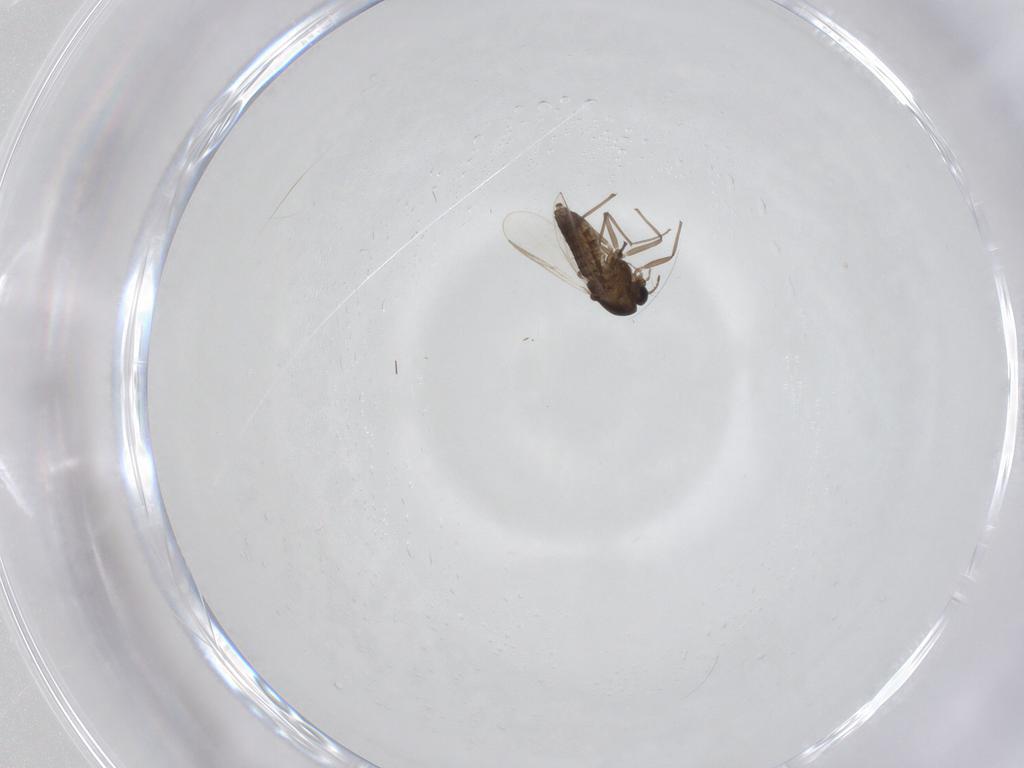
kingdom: Animalia
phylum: Arthropoda
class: Insecta
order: Diptera
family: Chironomidae
